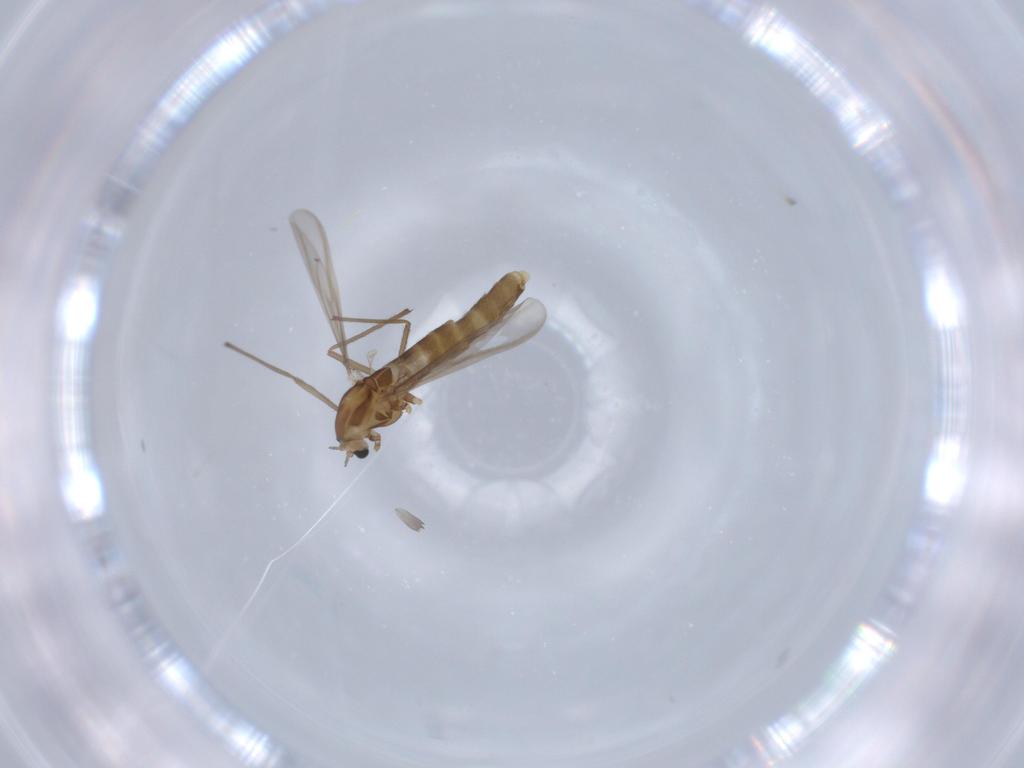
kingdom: Animalia
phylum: Arthropoda
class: Insecta
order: Diptera
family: Chironomidae
